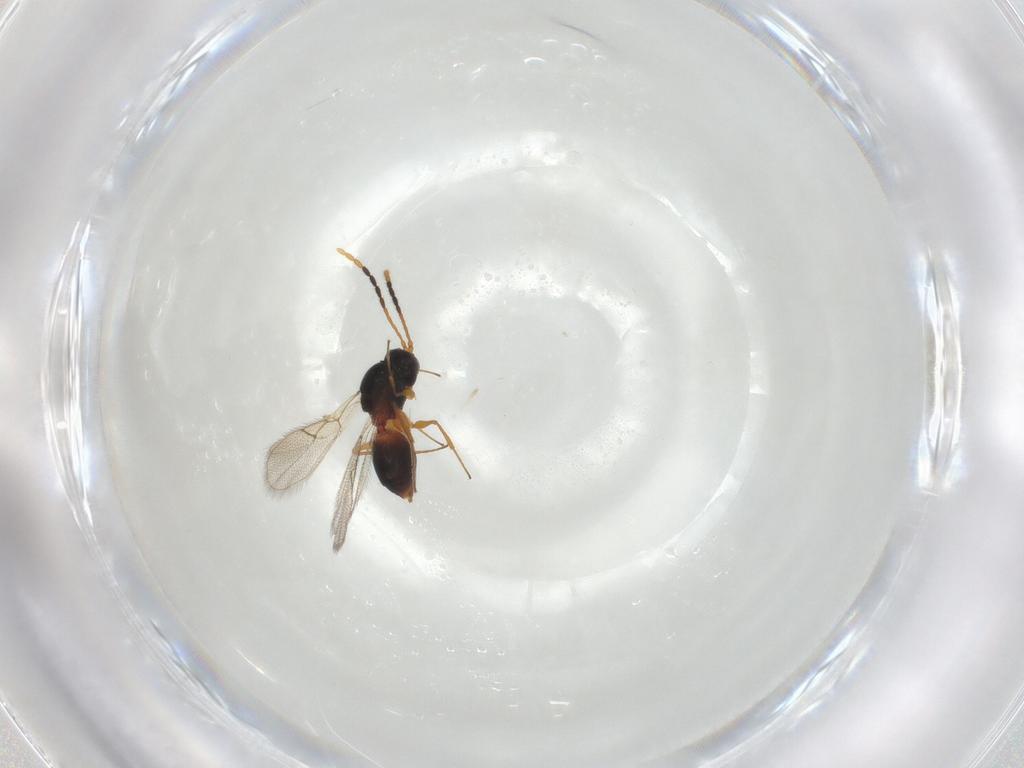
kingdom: Animalia
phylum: Arthropoda
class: Insecta
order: Hymenoptera
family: Figitidae
